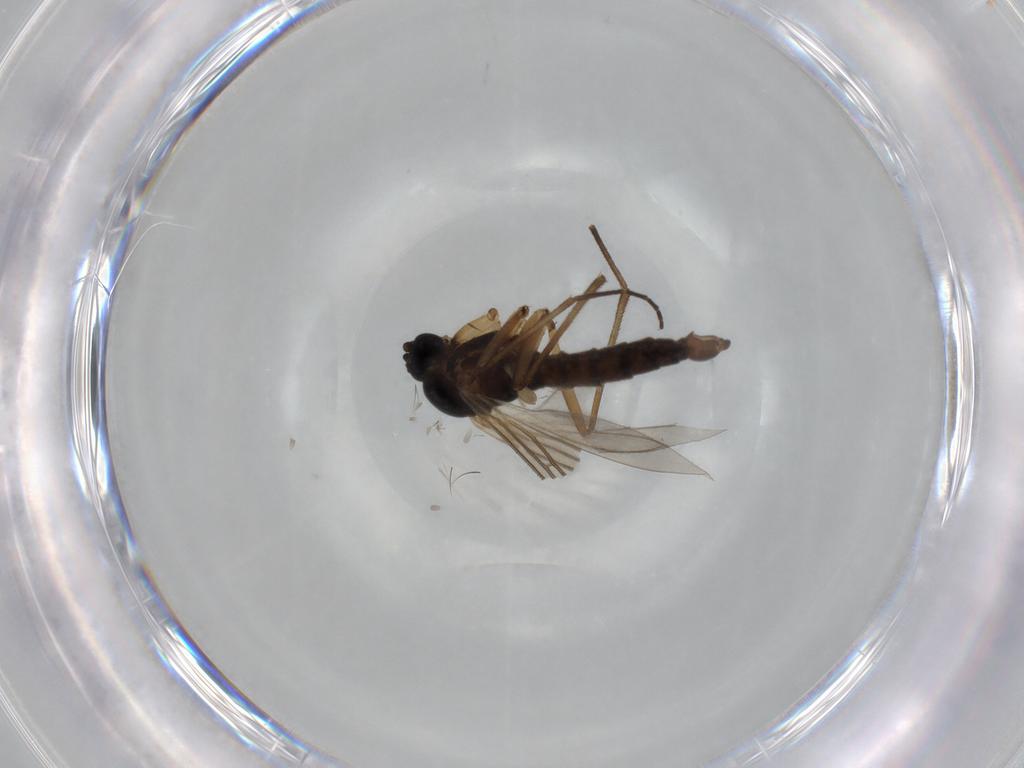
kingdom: Animalia
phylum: Arthropoda
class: Insecta
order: Diptera
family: Sciaridae
